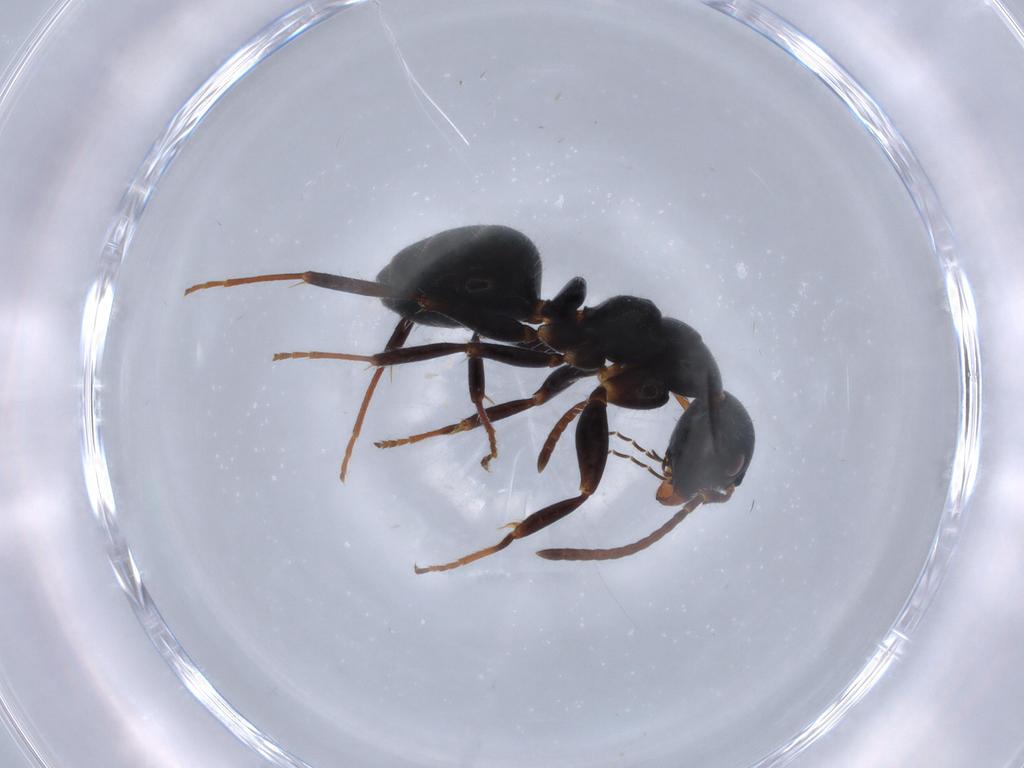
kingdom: Animalia
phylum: Arthropoda
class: Insecta
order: Hymenoptera
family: Formicidae
